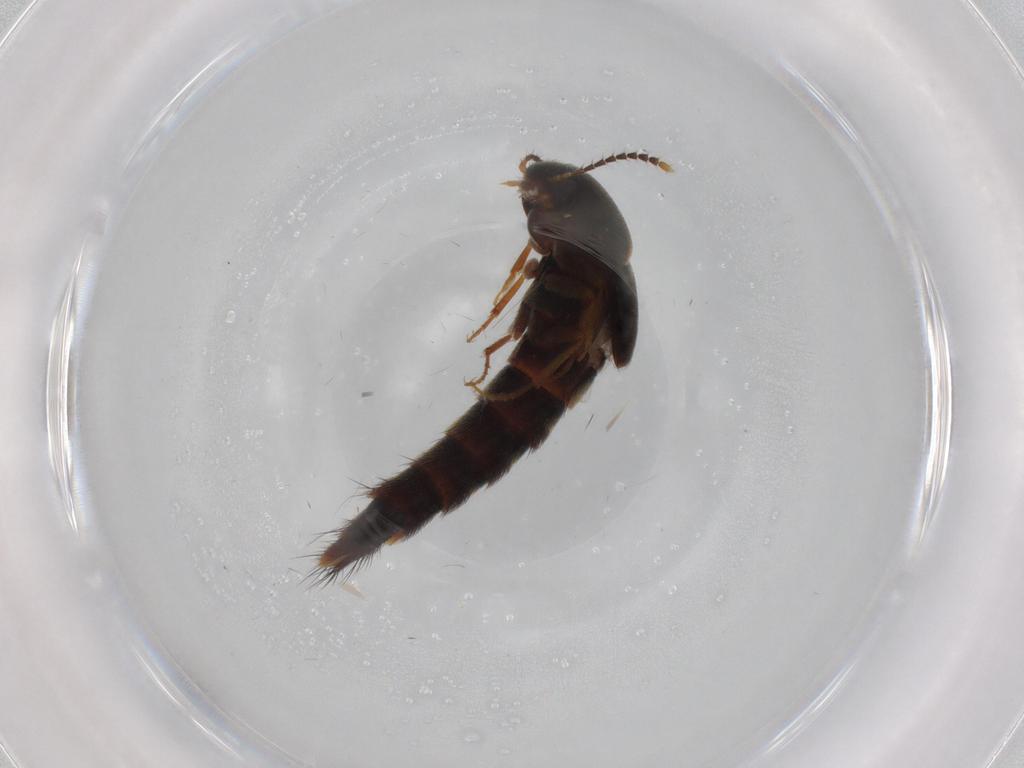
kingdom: Animalia
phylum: Arthropoda
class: Insecta
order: Coleoptera
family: Staphylinidae
